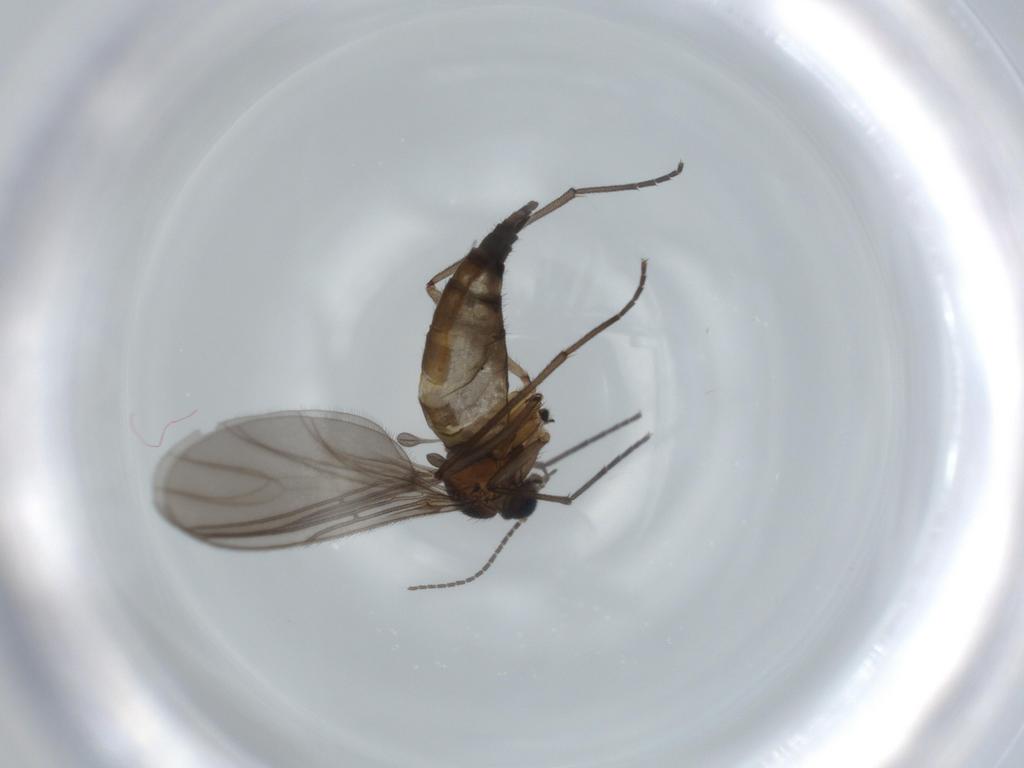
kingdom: Animalia
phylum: Arthropoda
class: Insecta
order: Diptera
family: Sciaridae
